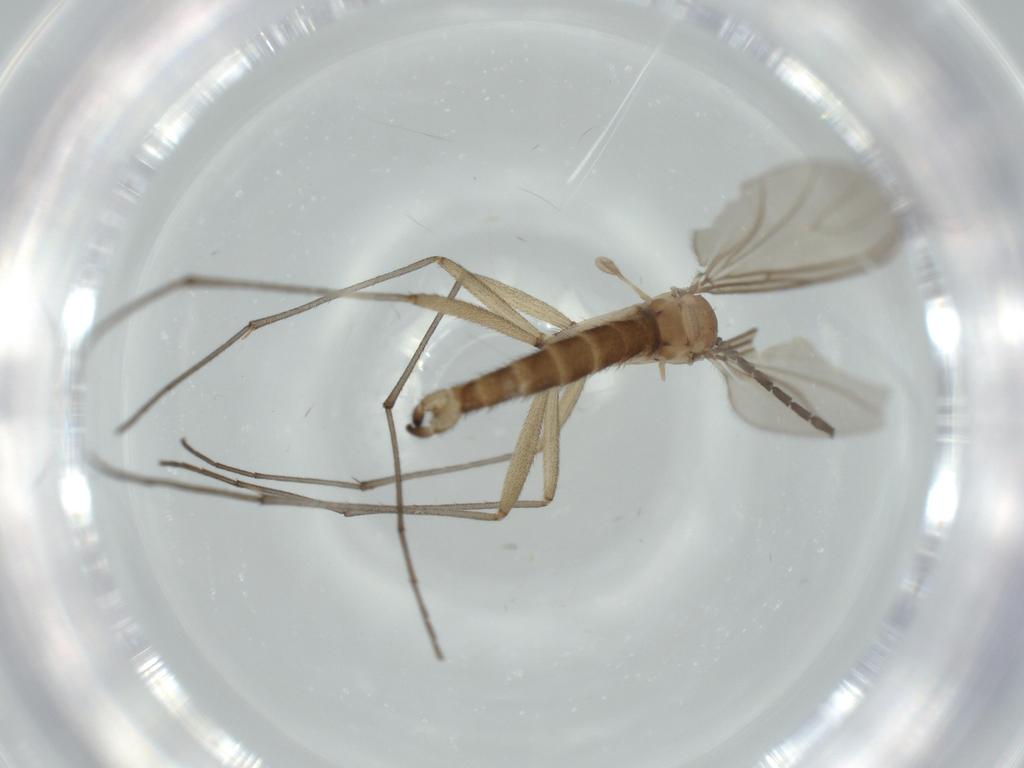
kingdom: Animalia
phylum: Arthropoda
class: Insecta
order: Diptera
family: Sciaridae
